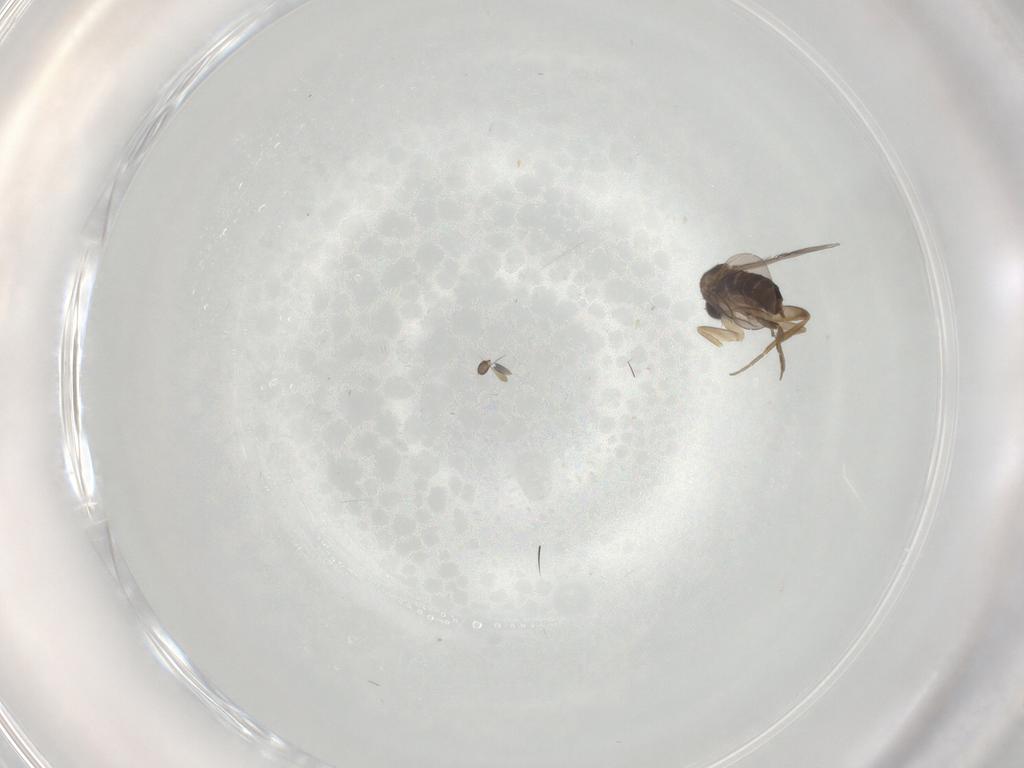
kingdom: Animalia
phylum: Arthropoda
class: Insecta
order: Diptera
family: Phoridae
